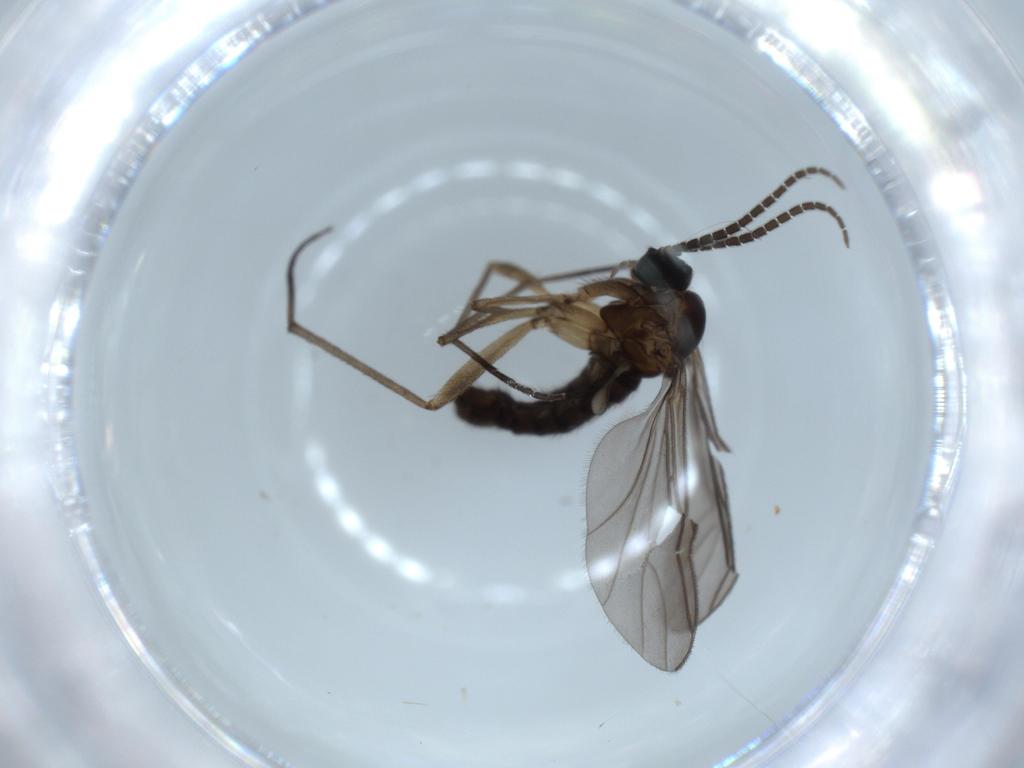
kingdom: Animalia
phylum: Arthropoda
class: Insecta
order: Diptera
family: Sciaridae
